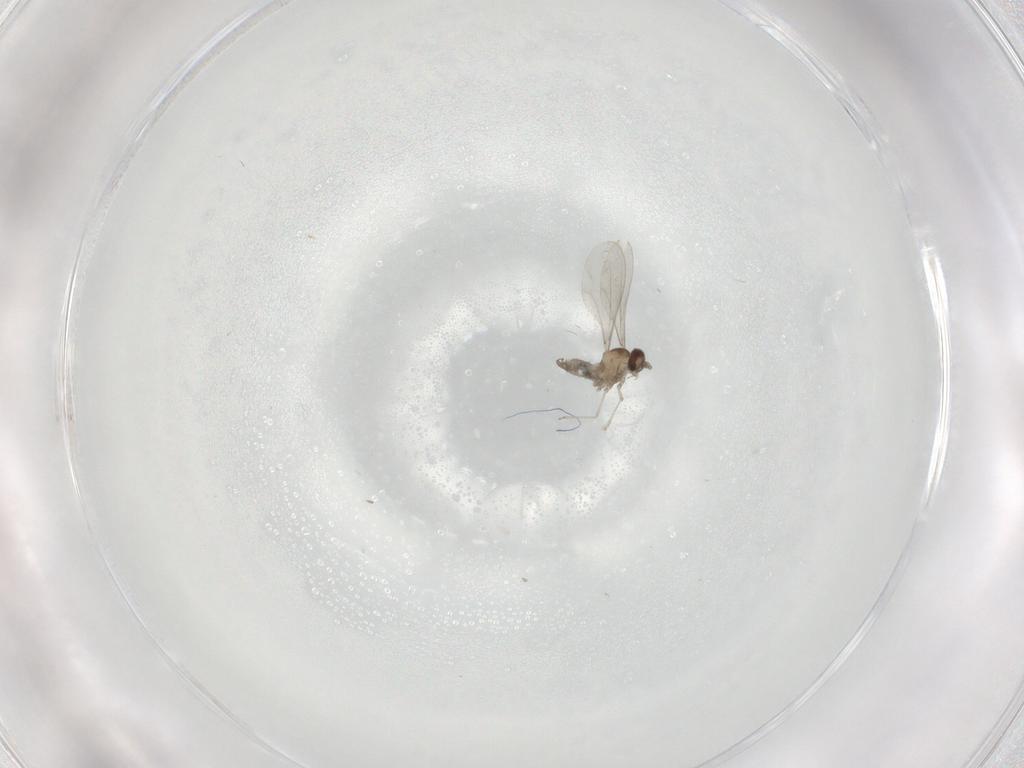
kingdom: Animalia
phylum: Arthropoda
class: Insecta
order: Diptera
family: Cecidomyiidae
